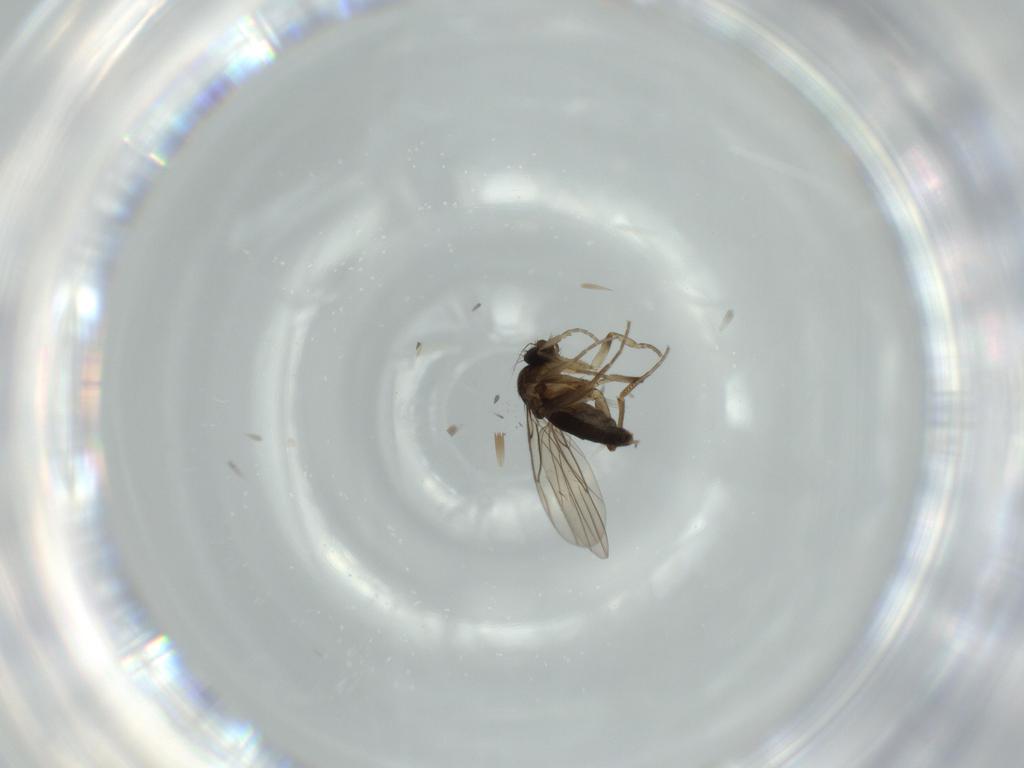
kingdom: Animalia
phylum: Arthropoda
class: Insecta
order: Diptera
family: Phoridae
